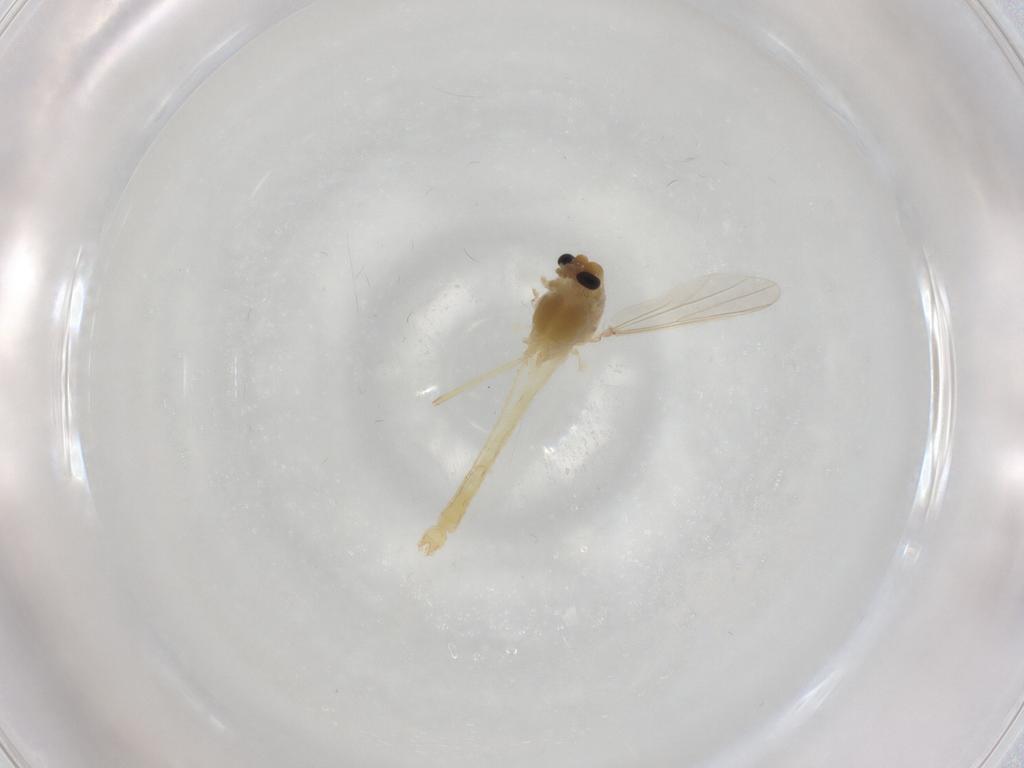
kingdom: Animalia
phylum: Arthropoda
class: Insecta
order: Diptera
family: Chironomidae
